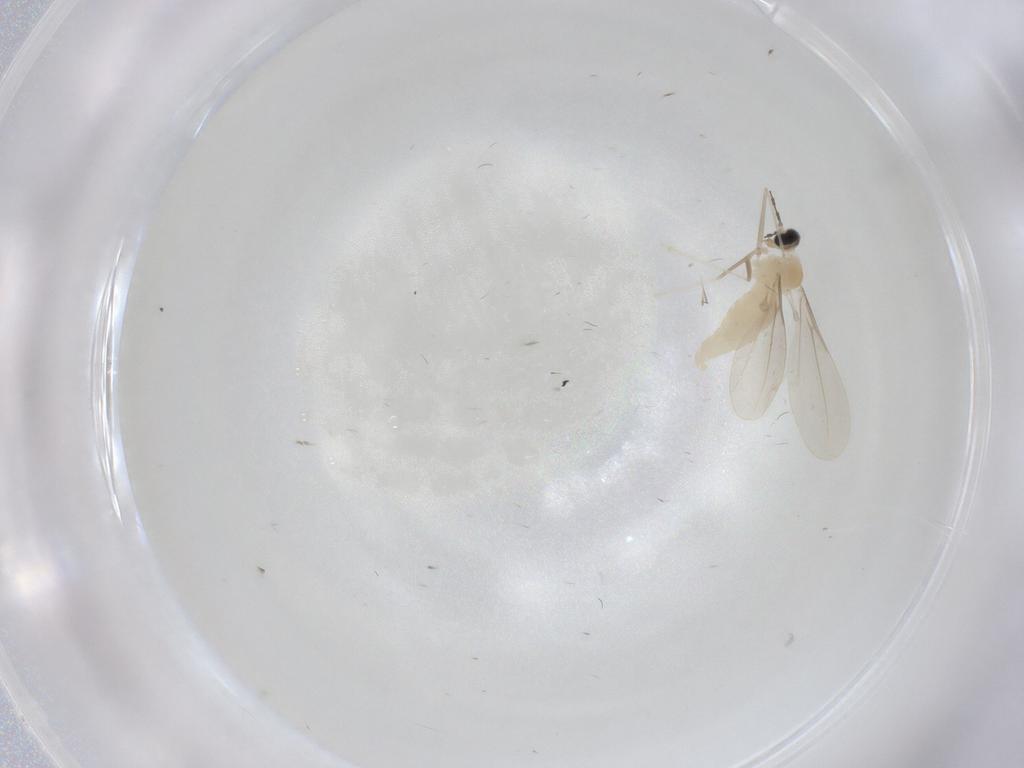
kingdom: Animalia
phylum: Arthropoda
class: Insecta
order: Diptera
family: Cecidomyiidae
